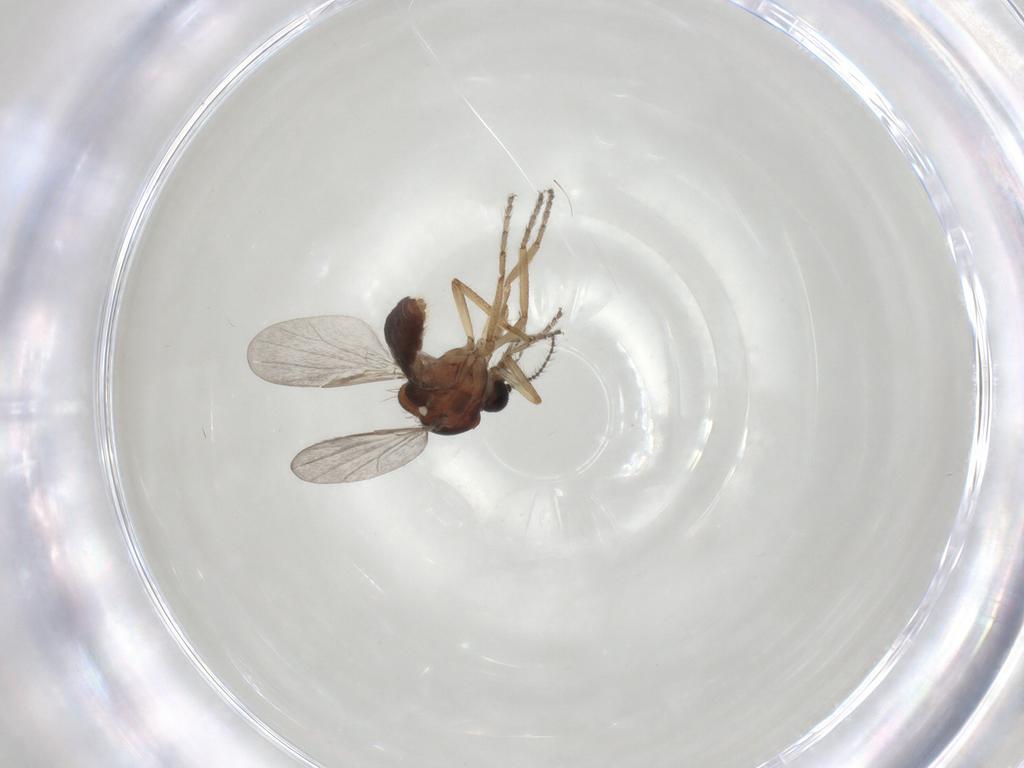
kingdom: Animalia
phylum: Arthropoda
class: Insecta
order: Diptera
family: Ceratopogonidae
